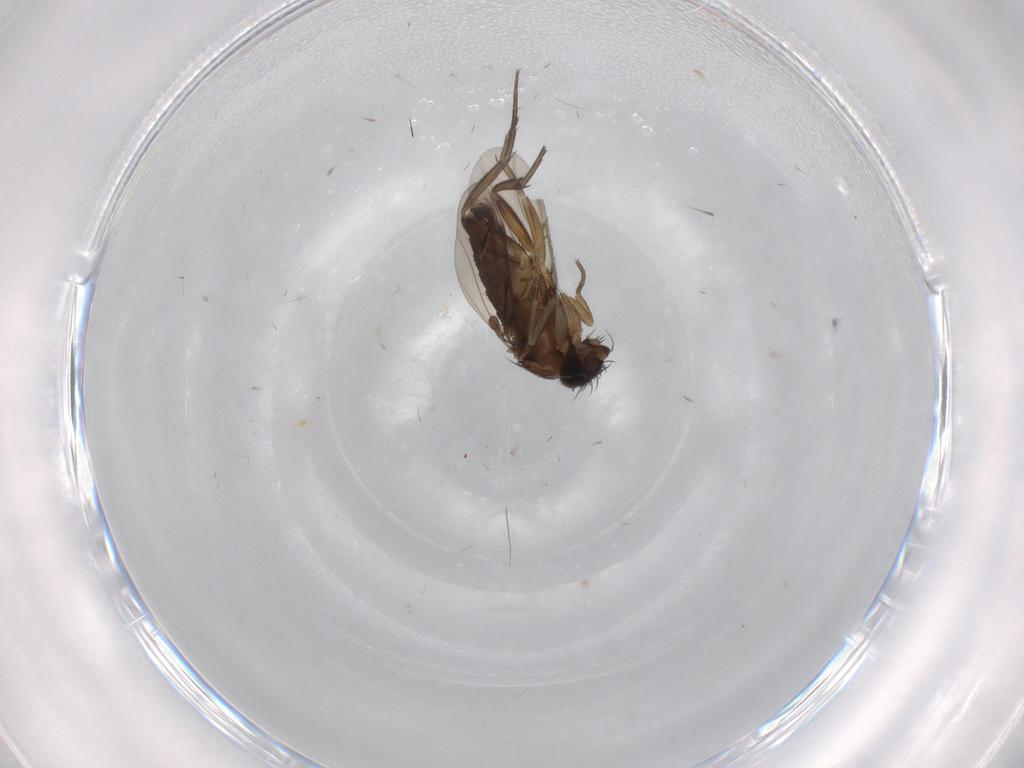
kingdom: Animalia
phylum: Arthropoda
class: Insecta
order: Diptera
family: Phoridae
